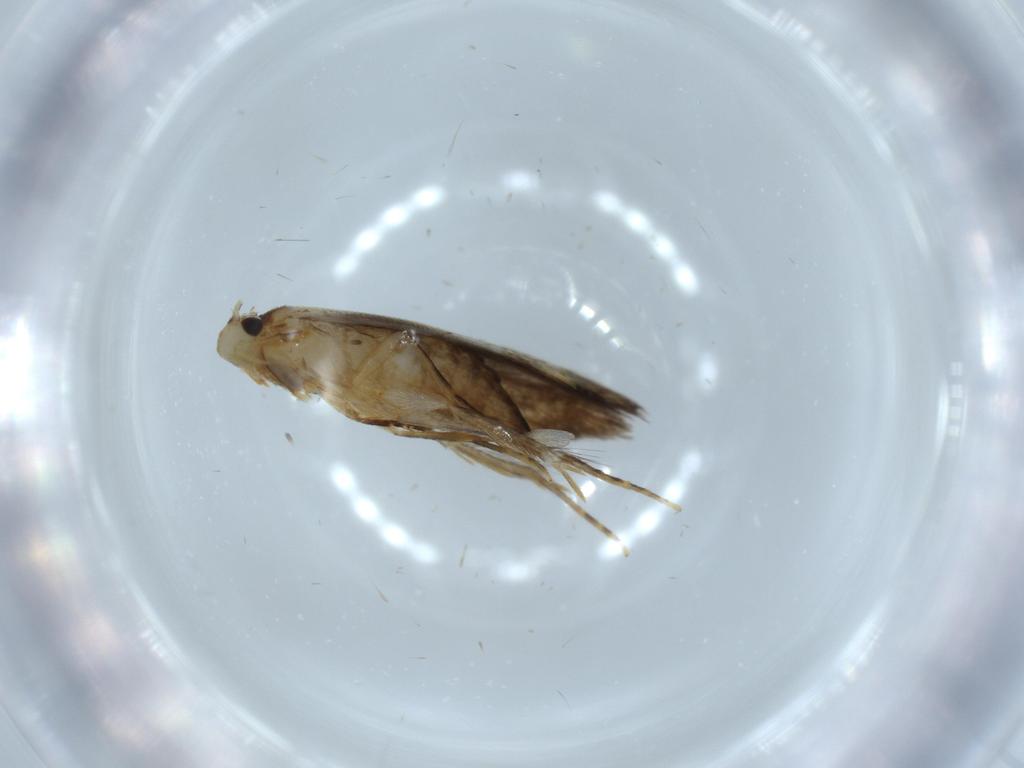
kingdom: Animalia
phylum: Arthropoda
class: Insecta
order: Lepidoptera
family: Tineidae
